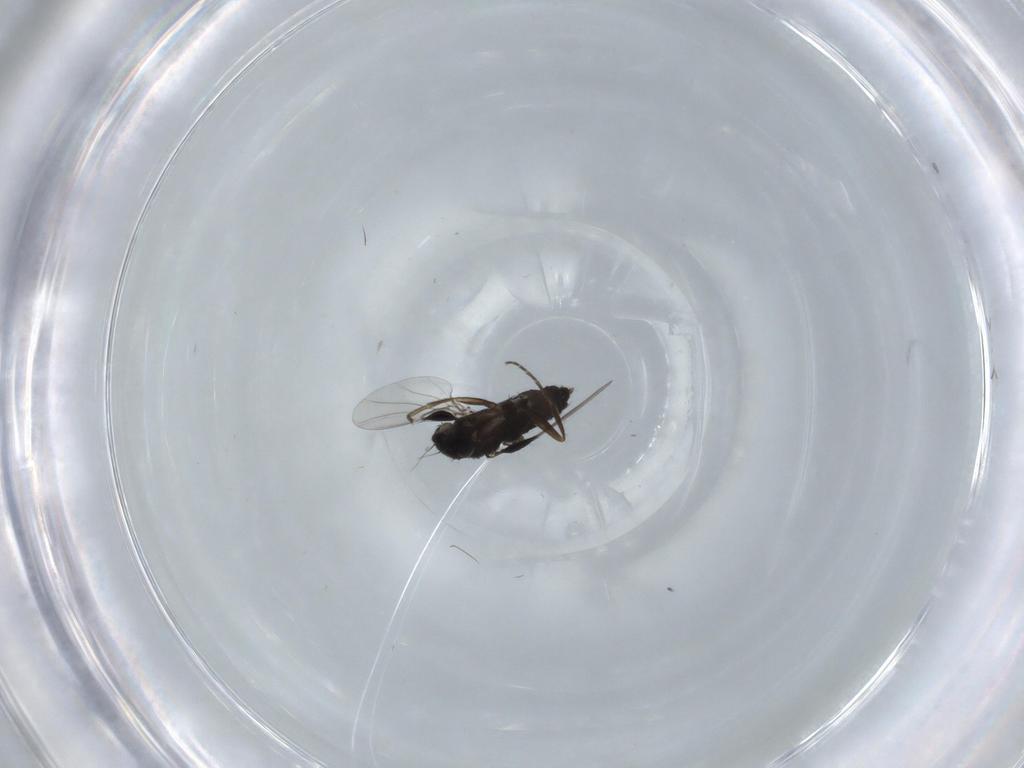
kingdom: Animalia
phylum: Arthropoda
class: Insecta
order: Diptera
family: Phoridae
